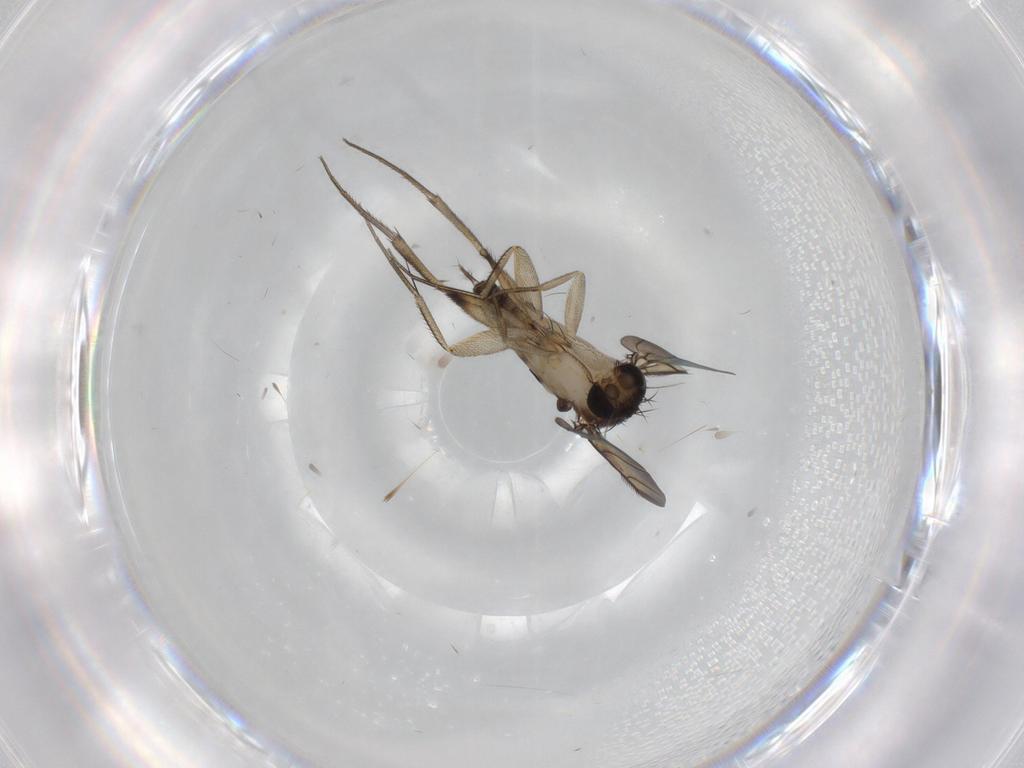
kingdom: Animalia
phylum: Arthropoda
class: Insecta
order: Diptera
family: Phoridae
